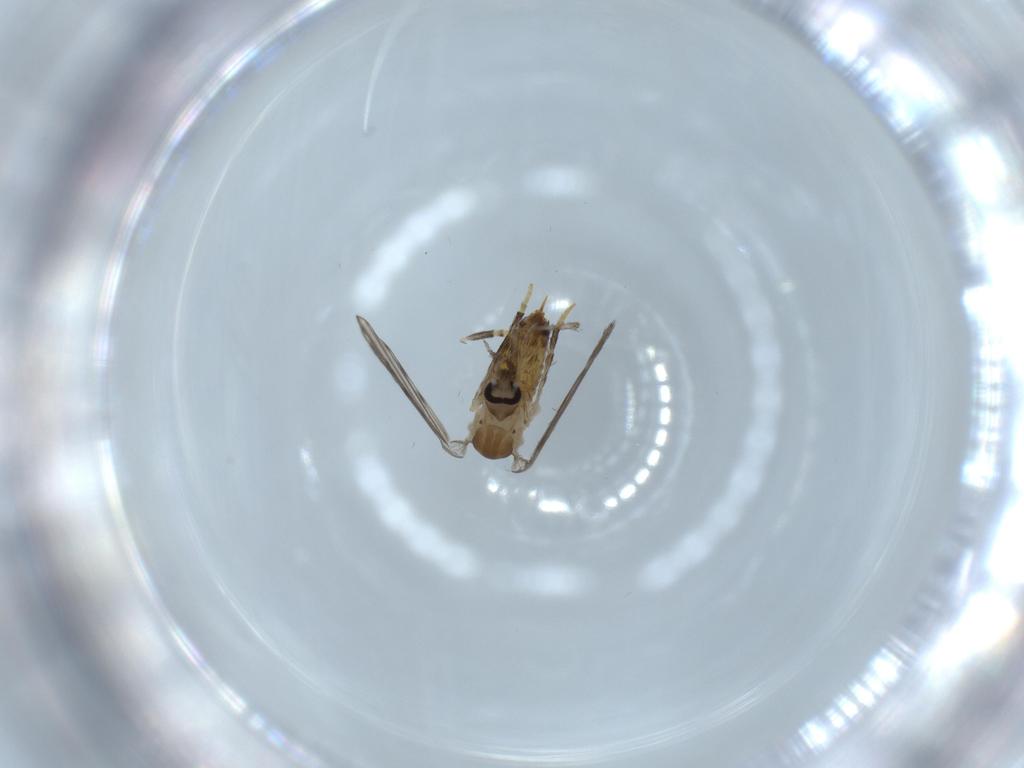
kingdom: Animalia
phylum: Arthropoda
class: Insecta
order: Diptera
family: Psychodidae
